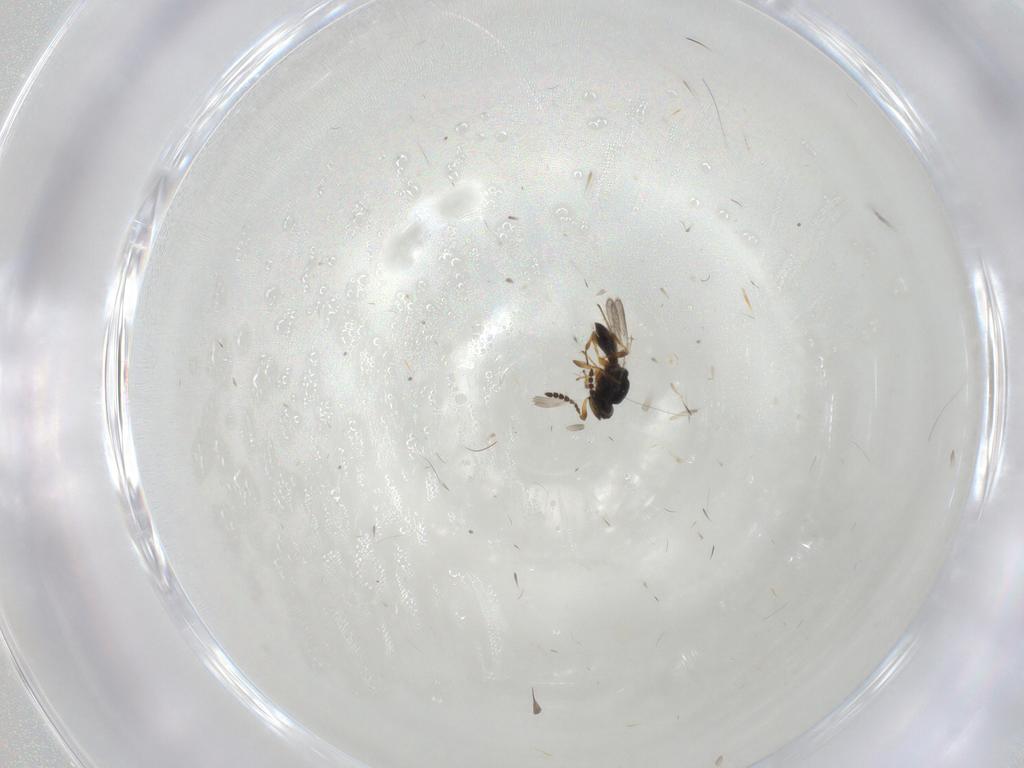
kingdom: Animalia
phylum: Arthropoda
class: Insecta
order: Hymenoptera
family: Platygastridae
